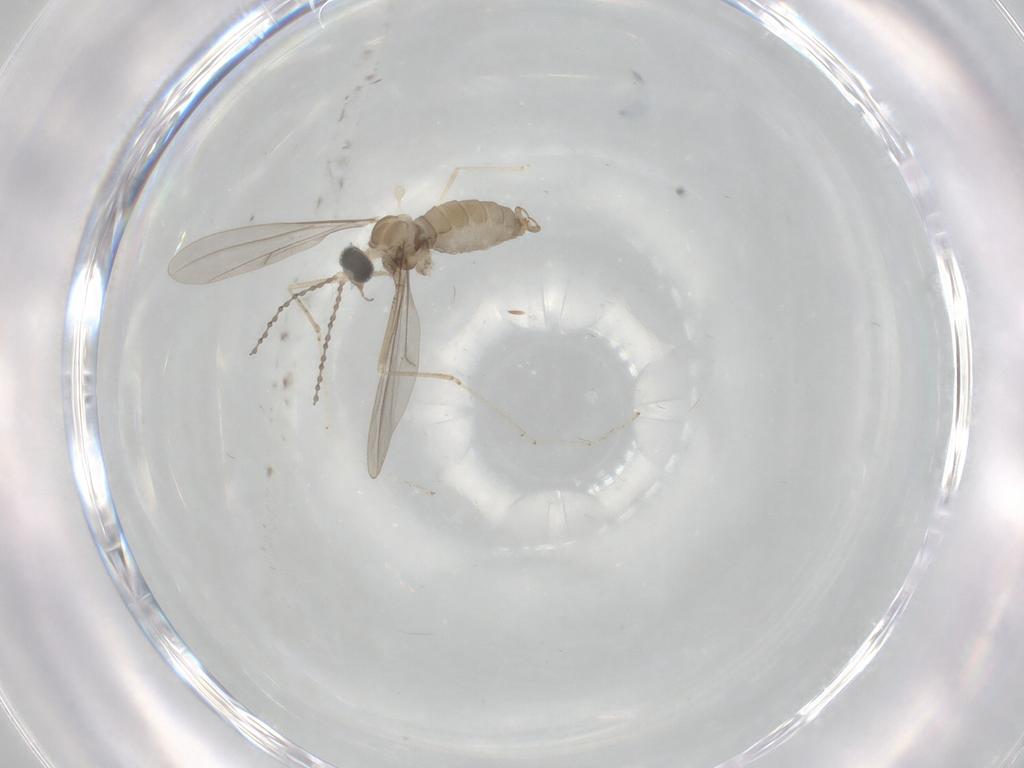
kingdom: Animalia
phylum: Arthropoda
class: Insecta
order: Diptera
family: Cecidomyiidae
